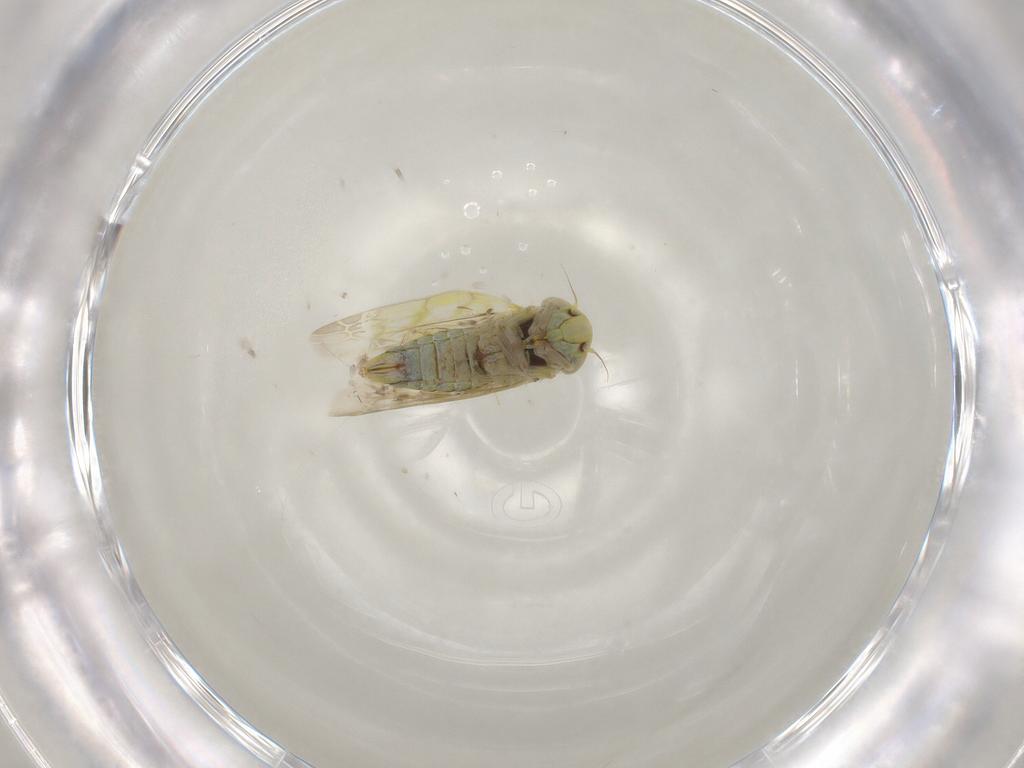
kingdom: Animalia
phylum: Arthropoda
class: Insecta
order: Hemiptera
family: Cicadellidae
